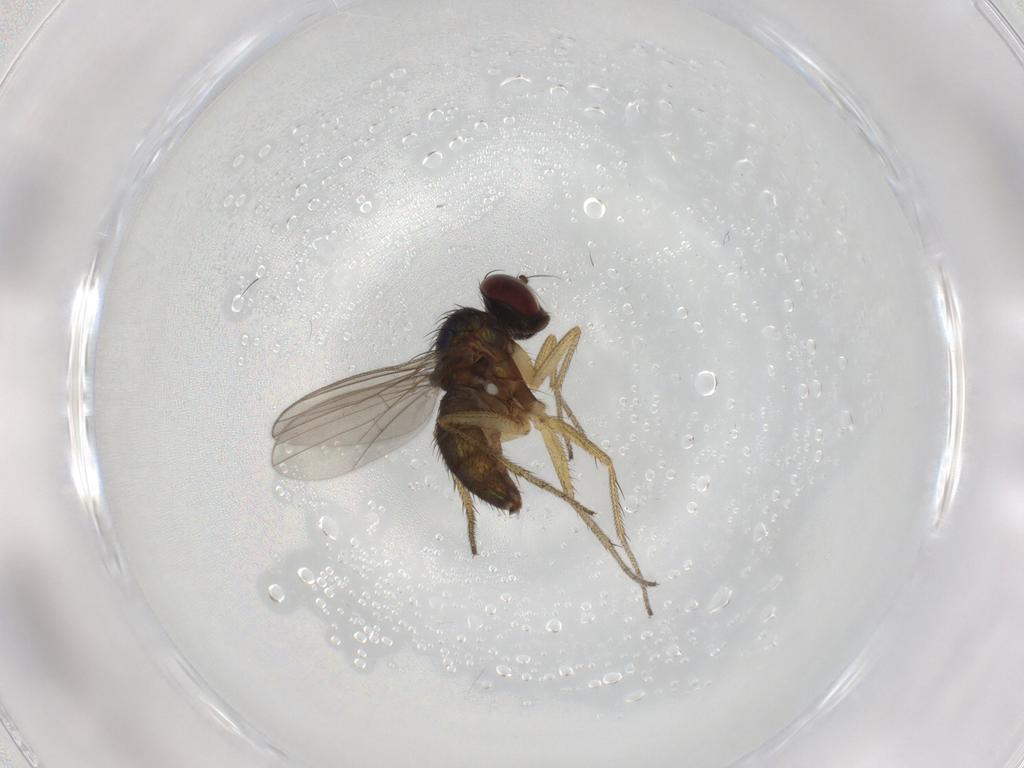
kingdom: Animalia
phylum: Arthropoda
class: Insecta
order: Diptera
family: Dolichopodidae
